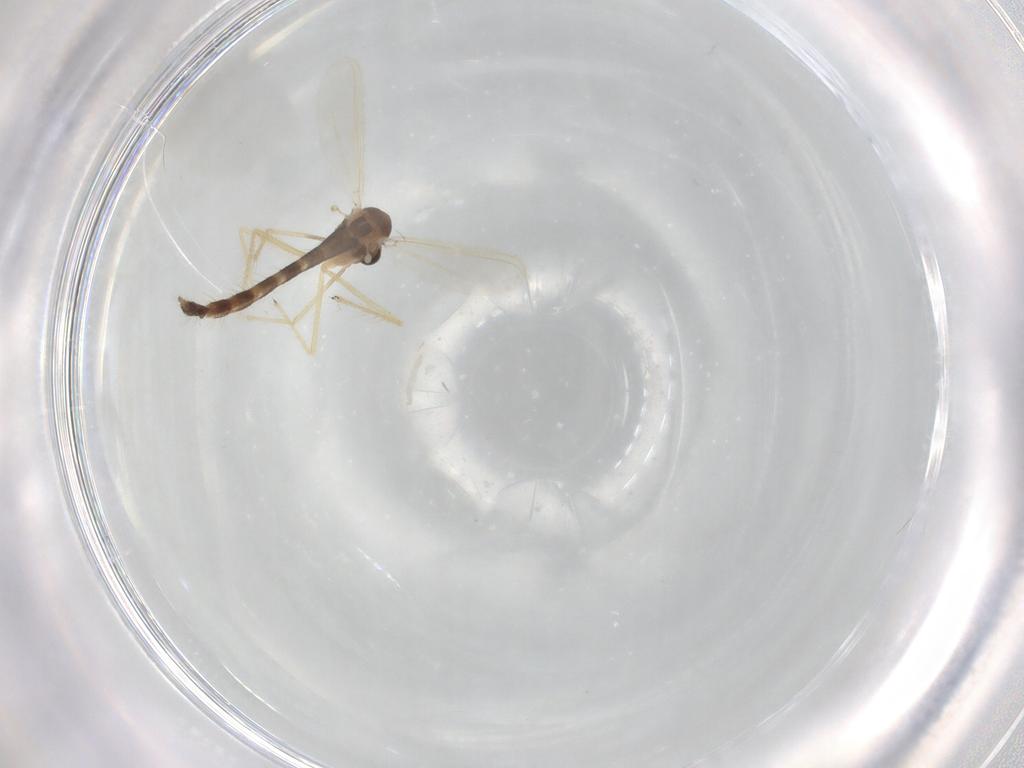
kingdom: Animalia
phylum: Arthropoda
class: Insecta
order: Diptera
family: Chironomidae
